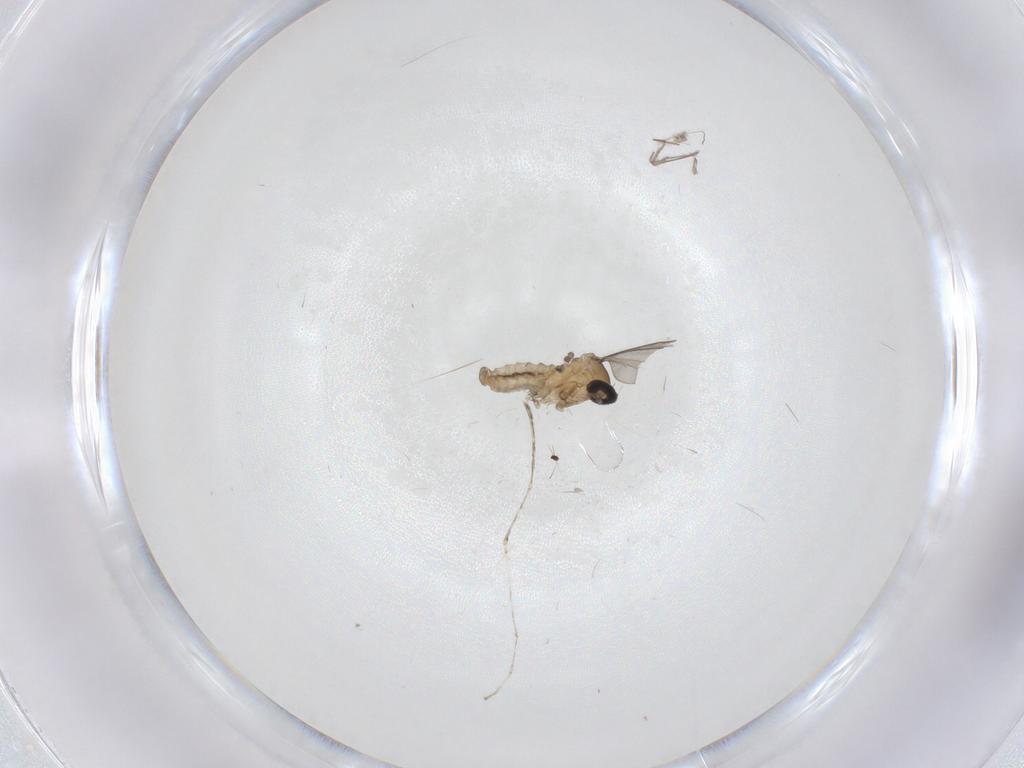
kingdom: Animalia
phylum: Arthropoda
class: Insecta
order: Diptera
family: Cecidomyiidae
